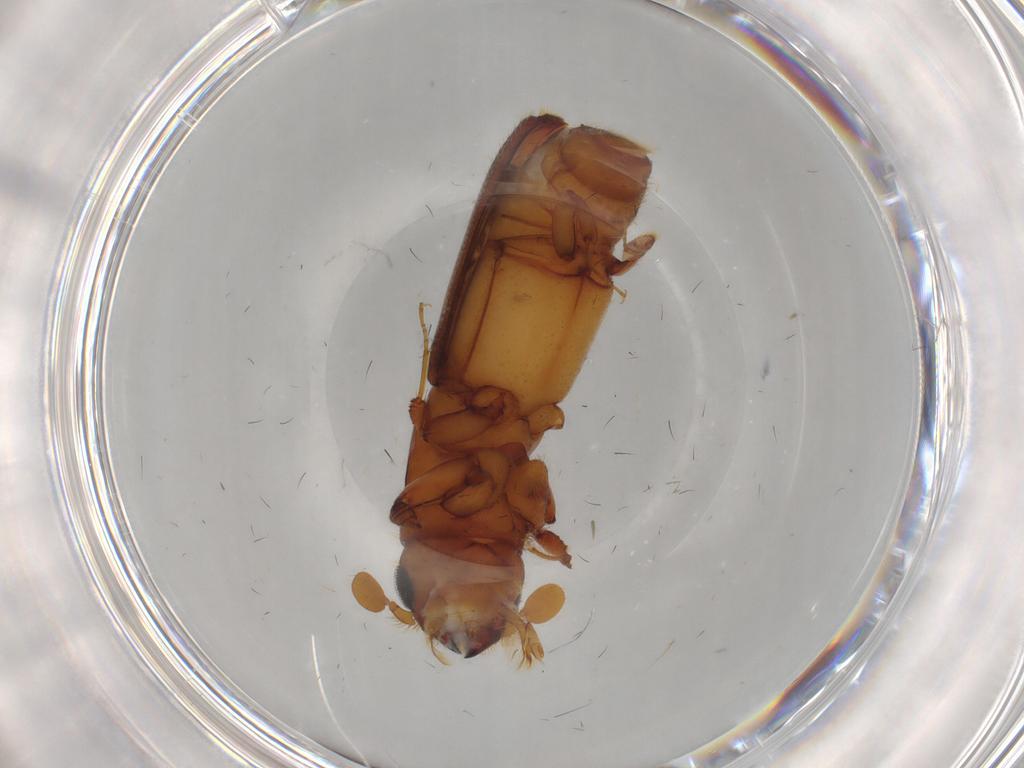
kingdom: Animalia
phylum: Arthropoda
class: Insecta
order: Coleoptera
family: Curculionidae
